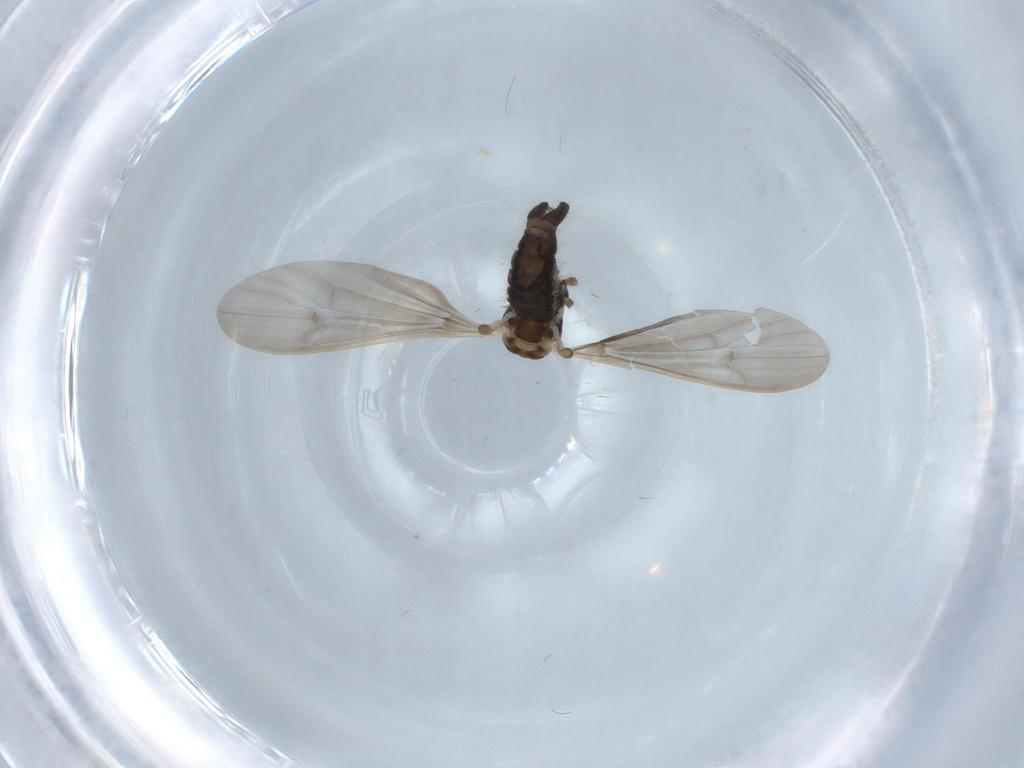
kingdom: Animalia
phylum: Arthropoda
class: Insecta
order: Diptera
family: Limoniidae
